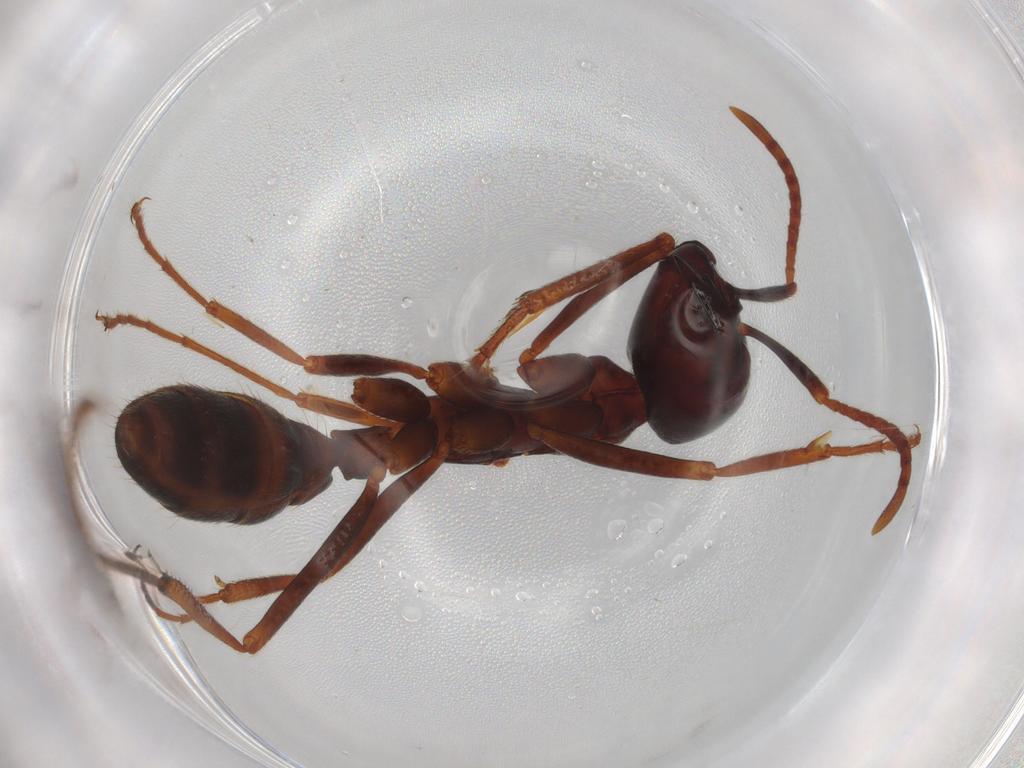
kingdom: Animalia
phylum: Arthropoda
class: Insecta
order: Hymenoptera
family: Formicidae
